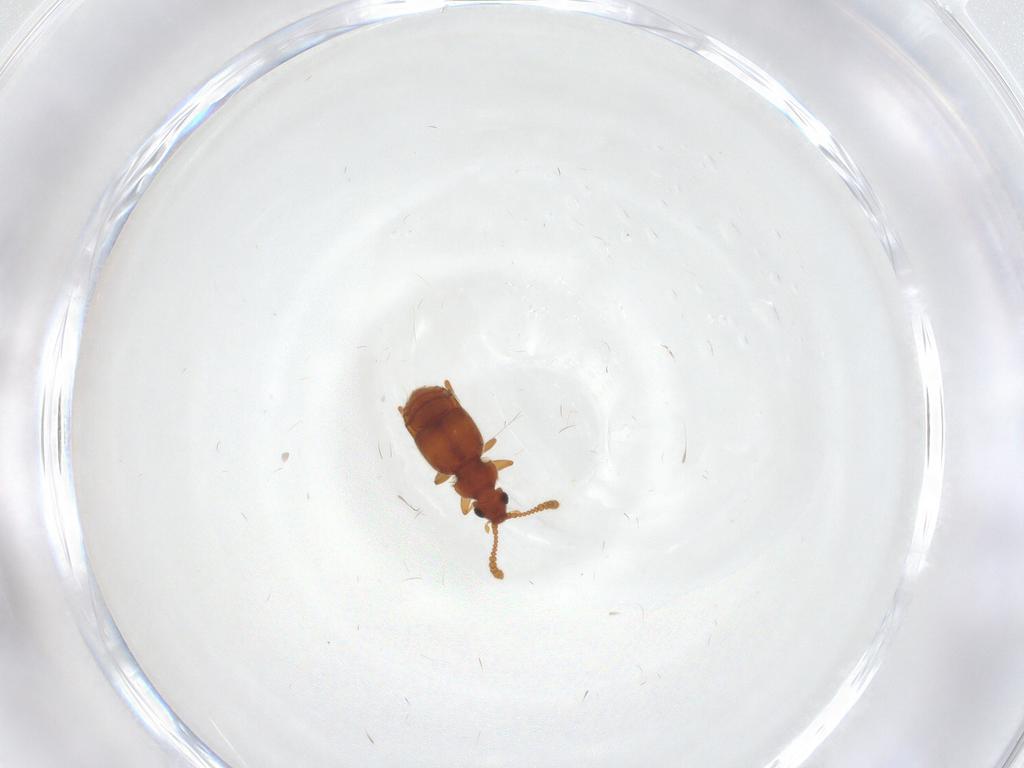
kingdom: Animalia
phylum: Arthropoda
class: Insecta
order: Coleoptera
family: Staphylinidae
